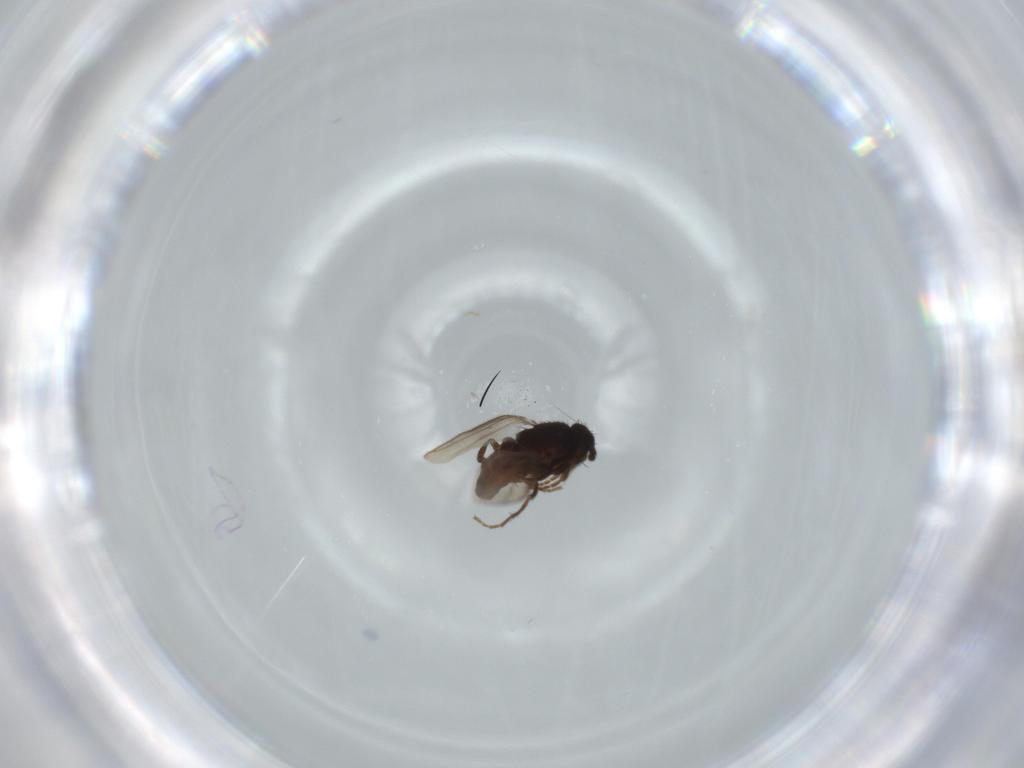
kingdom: Animalia
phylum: Arthropoda
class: Insecta
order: Diptera
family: Sphaeroceridae
